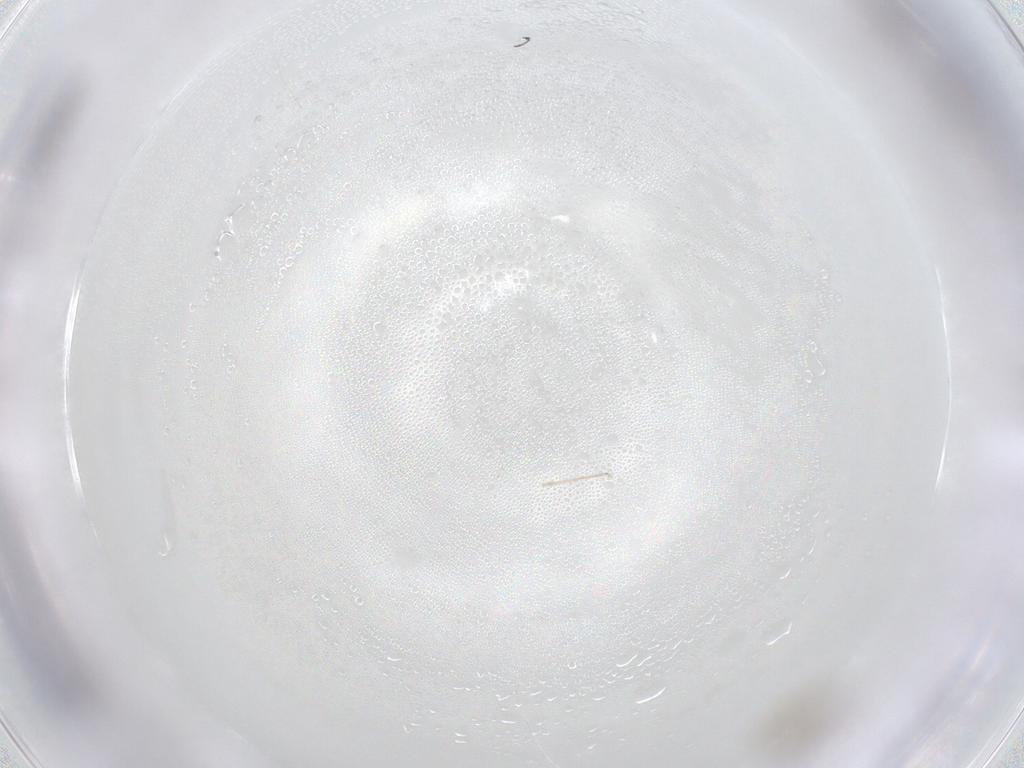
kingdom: Animalia
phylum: Arthropoda
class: Insecta
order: Diptera
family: Cecidomyiidae
